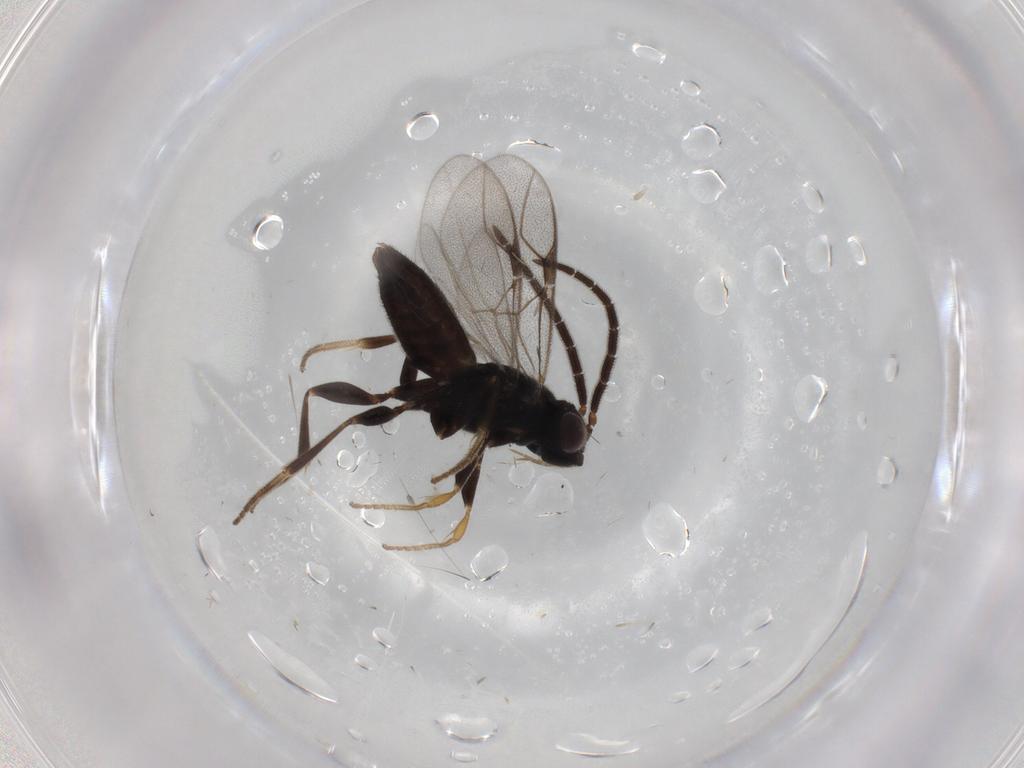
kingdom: Animalia
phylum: Arthropoda
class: Insecta
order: Hymenoptera
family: Dryinidae
